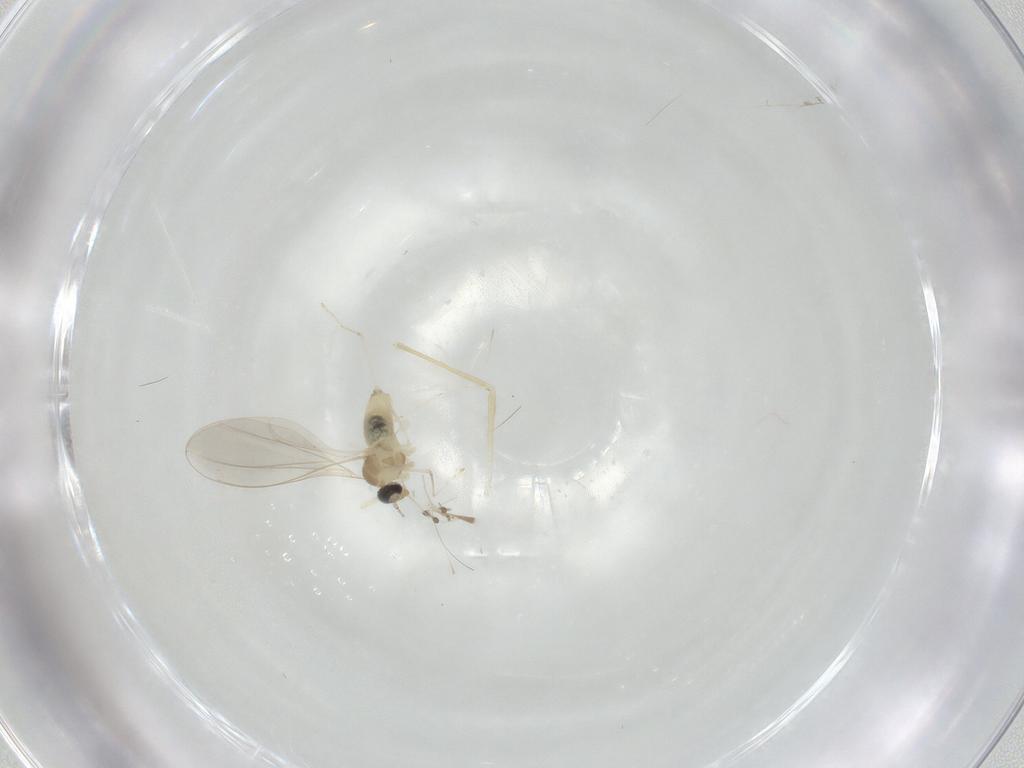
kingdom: Animalia
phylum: Arthropoda
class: Insecta
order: Diptera
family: Chironomidae
